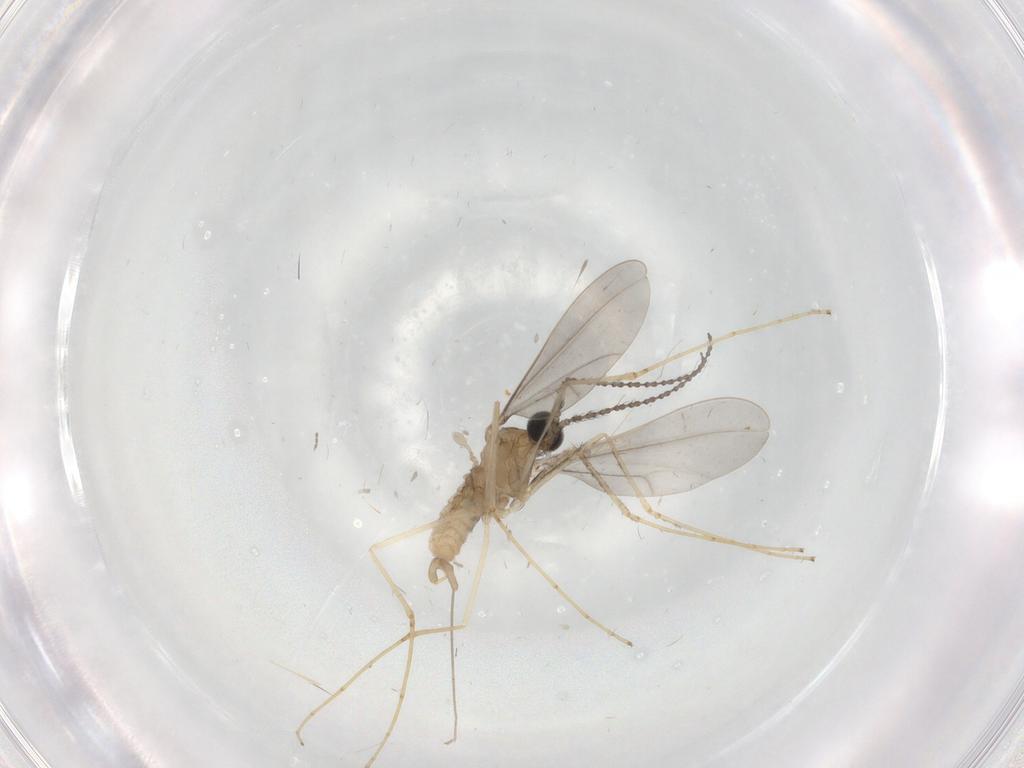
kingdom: Animalia
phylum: Arthropoda
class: Insecta
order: Diptera
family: Cecidomyiidae
